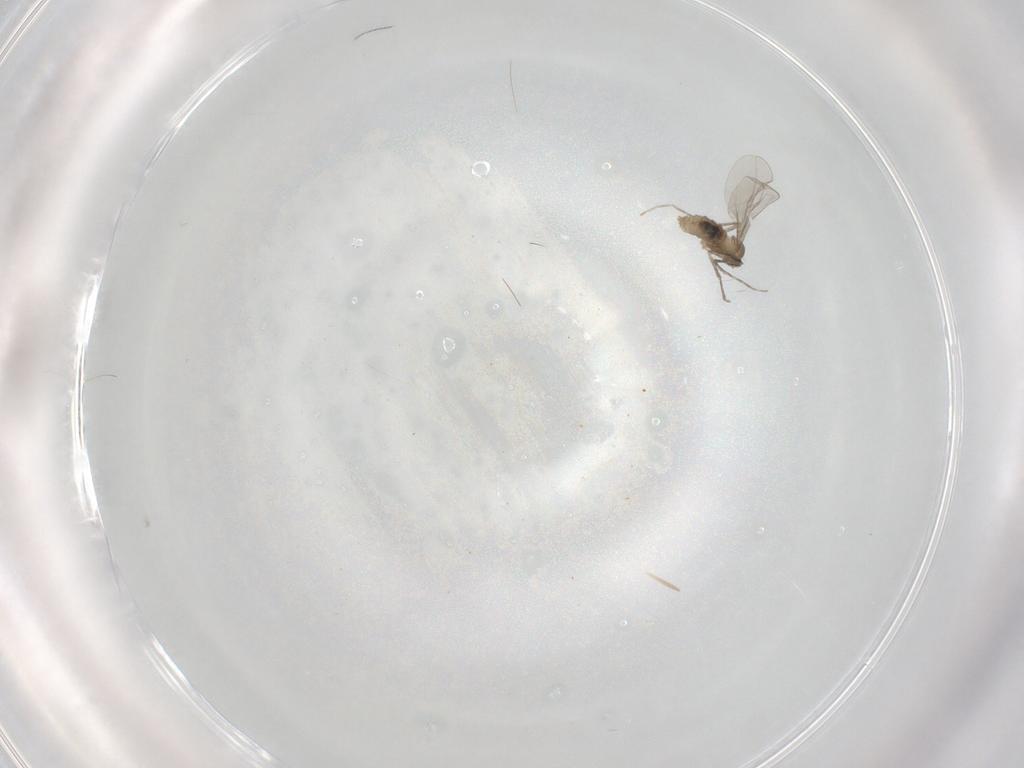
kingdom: Animalia
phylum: Arthropoda
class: Insecta
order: Diptera
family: Cecidomyiidae
